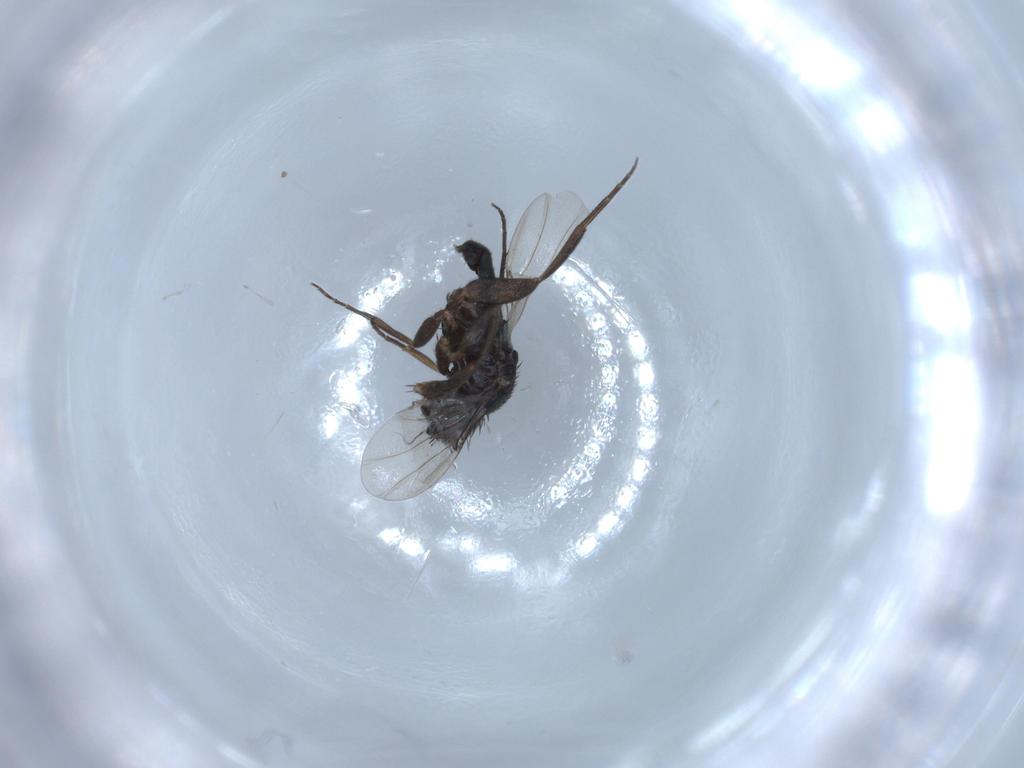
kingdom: Animalia
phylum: Arthropoda
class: Insecta
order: Diptera
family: Phoridae
